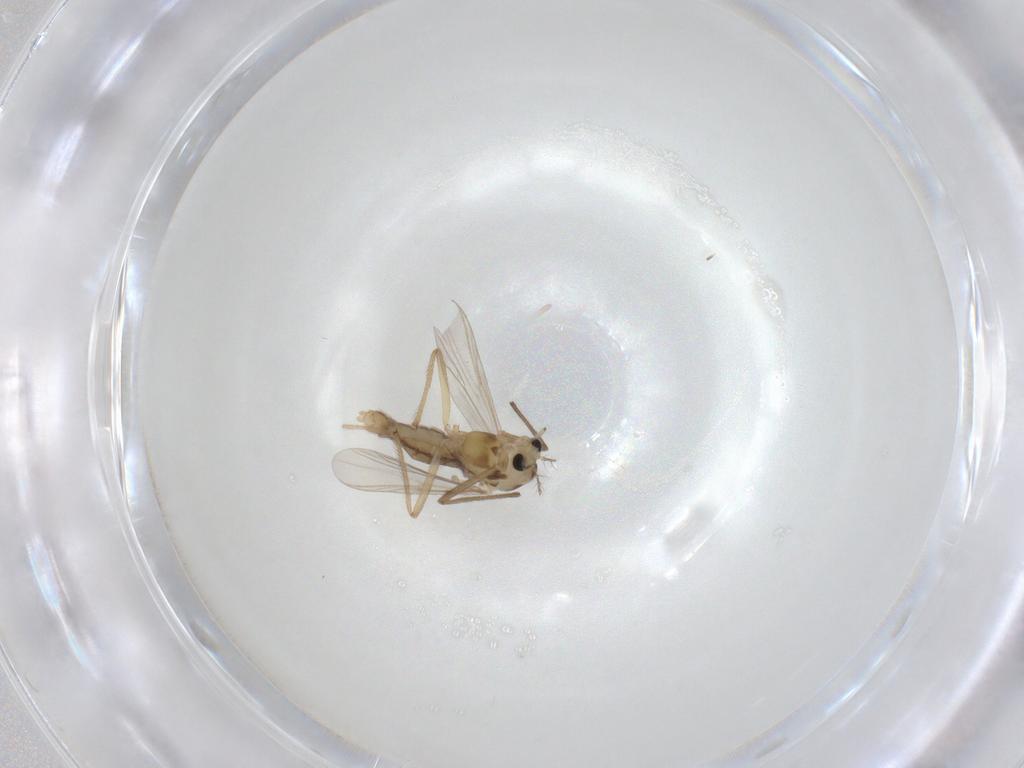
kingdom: Animalia
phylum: Arthropoda
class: Insecta
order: Diptera
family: Chironomidae
